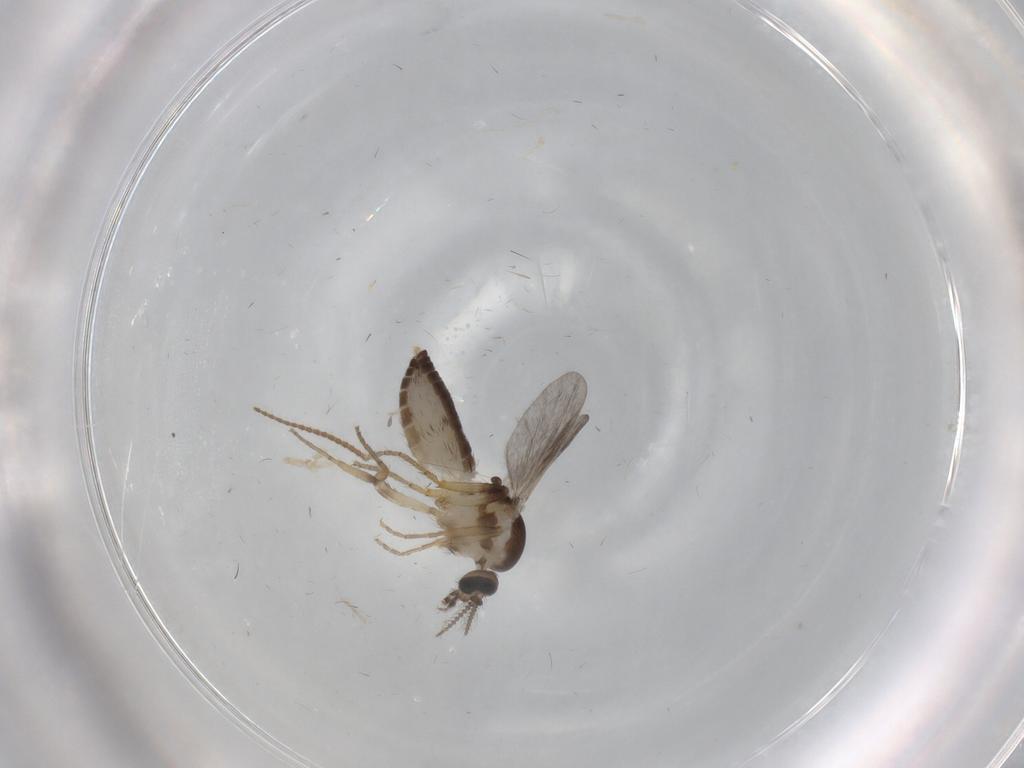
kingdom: Animalia
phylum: Arthropoda
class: Insecta
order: Diptera
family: Ceratopogonidae
